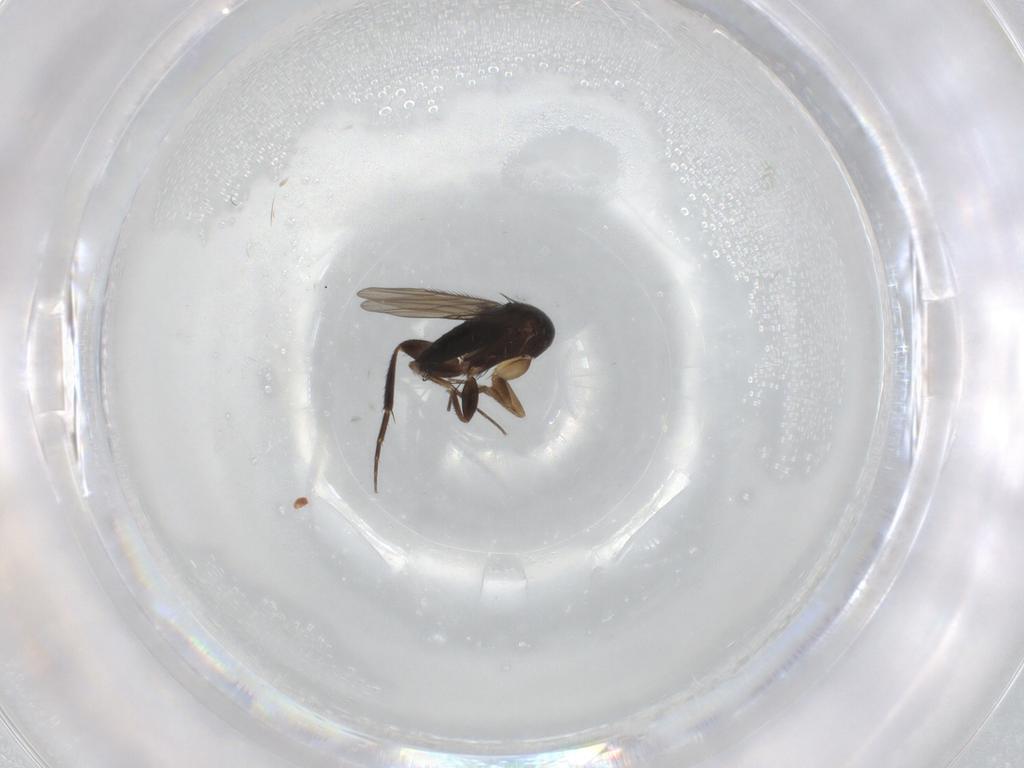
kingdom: Animalia
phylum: Arthropoda
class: Insecta
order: Diptera
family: Phoridae
